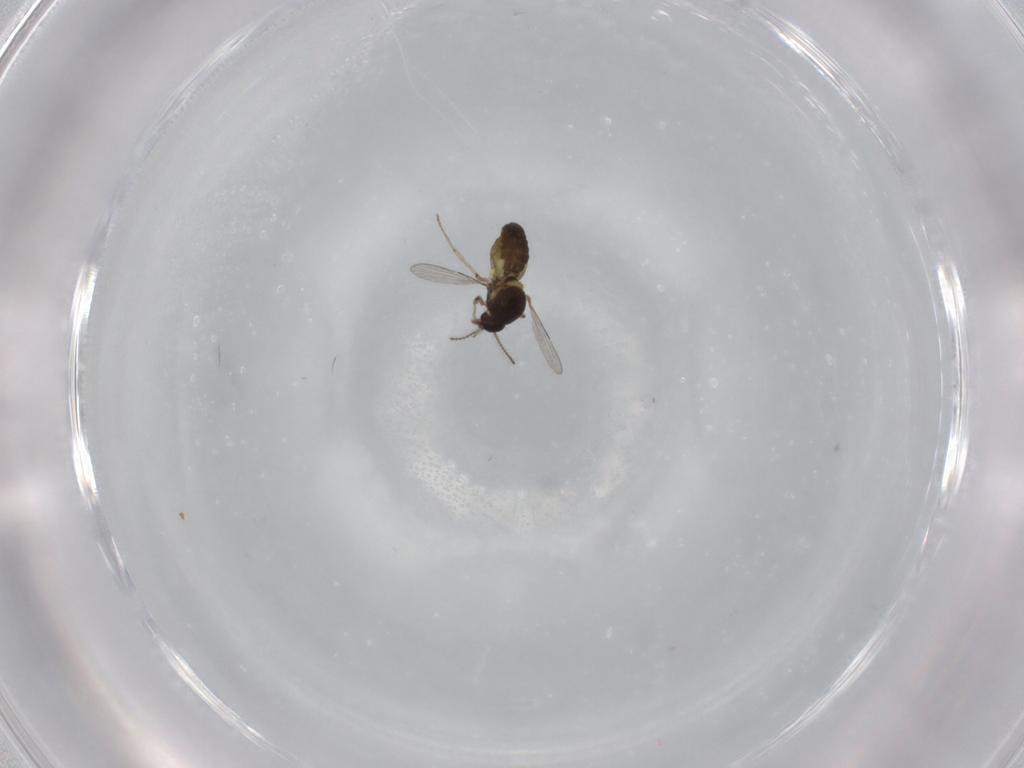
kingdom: Animalia
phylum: Arthropoda
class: Insecta
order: Diptera
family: Ceratopogonidae
